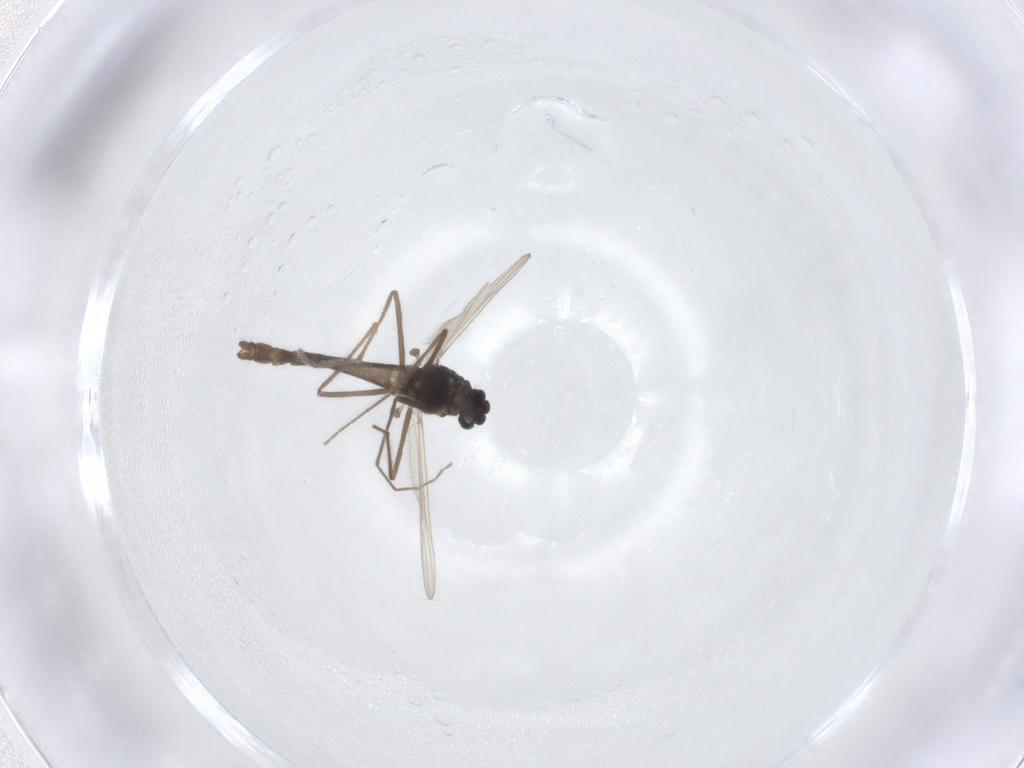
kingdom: Animalia
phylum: Arthropoda
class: Insecta
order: Diptera
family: Chironomidae
